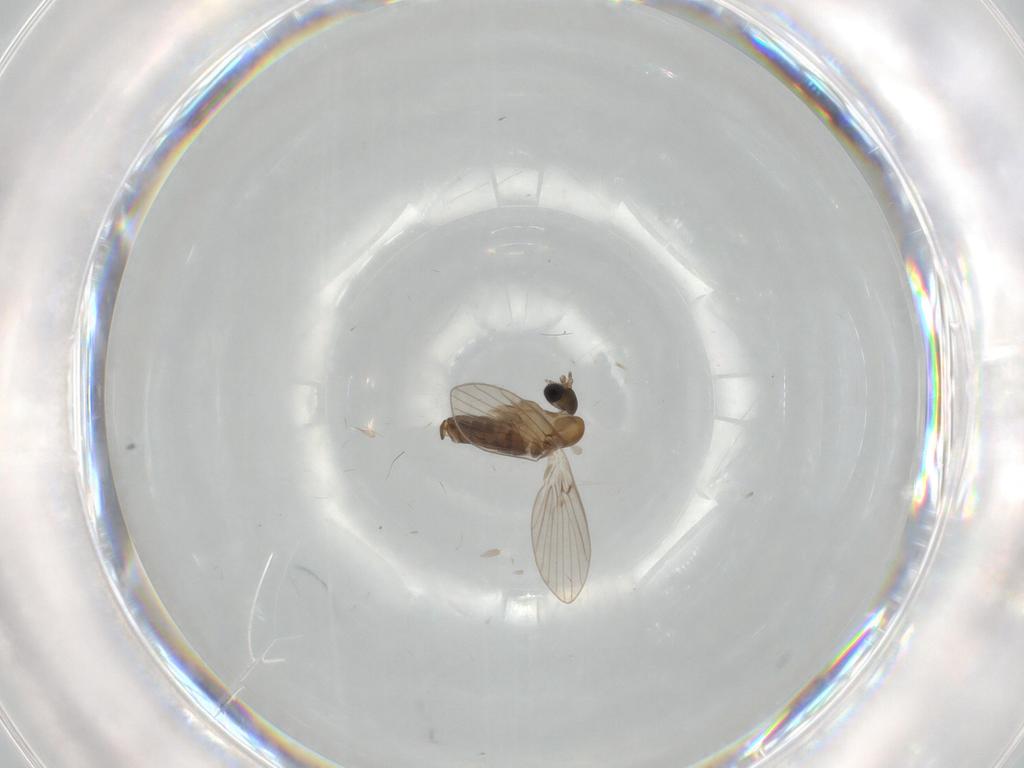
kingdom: Animalia
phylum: Arthropoda
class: Insecta
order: Diptera
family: Psychodidae
